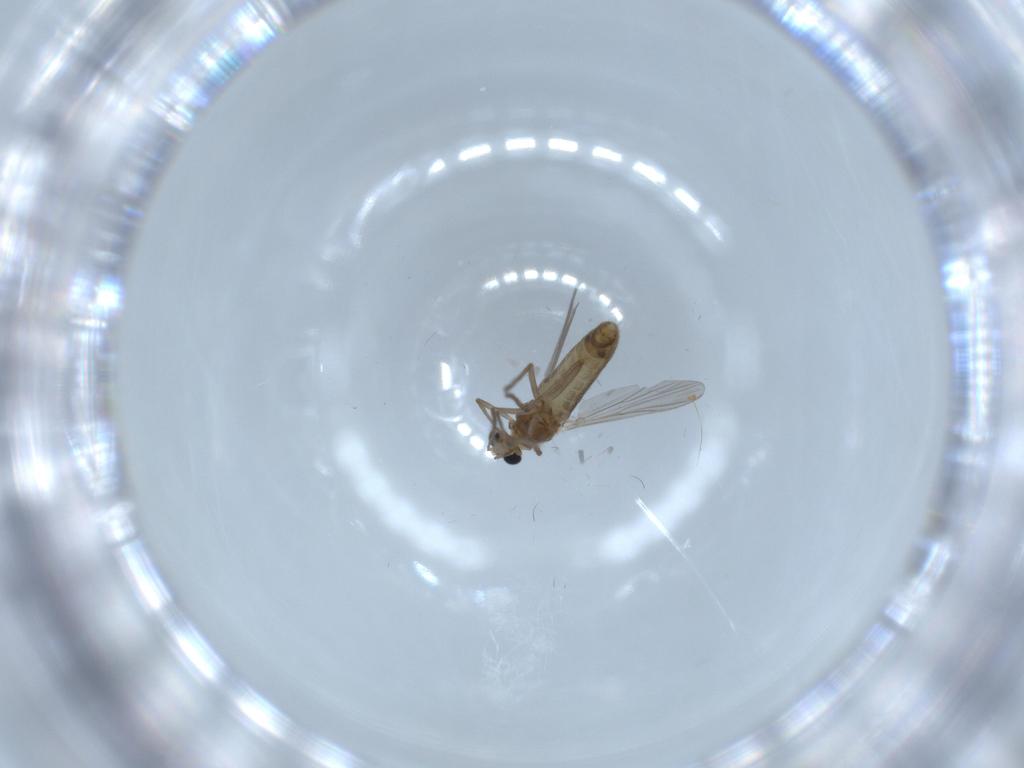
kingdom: Animalia
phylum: Arthropoda
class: Insecta
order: Diptera
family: Chironomidae
